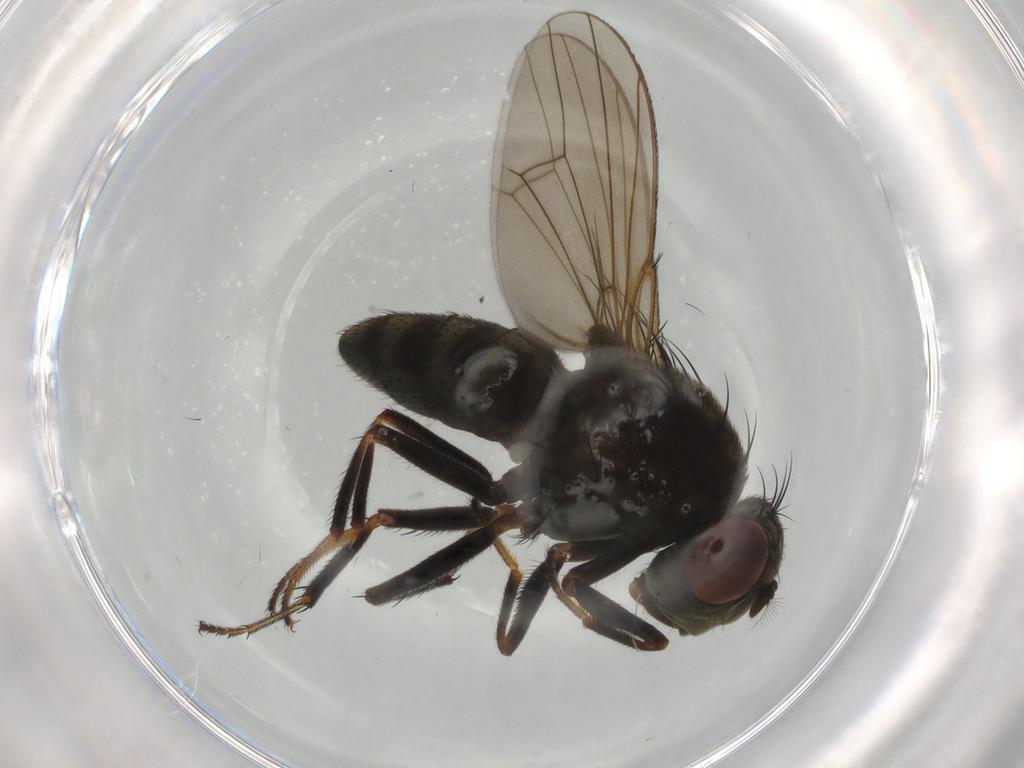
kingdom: Animalia
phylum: Arthropoda
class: Insecta
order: Diptera
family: Ephydridae
